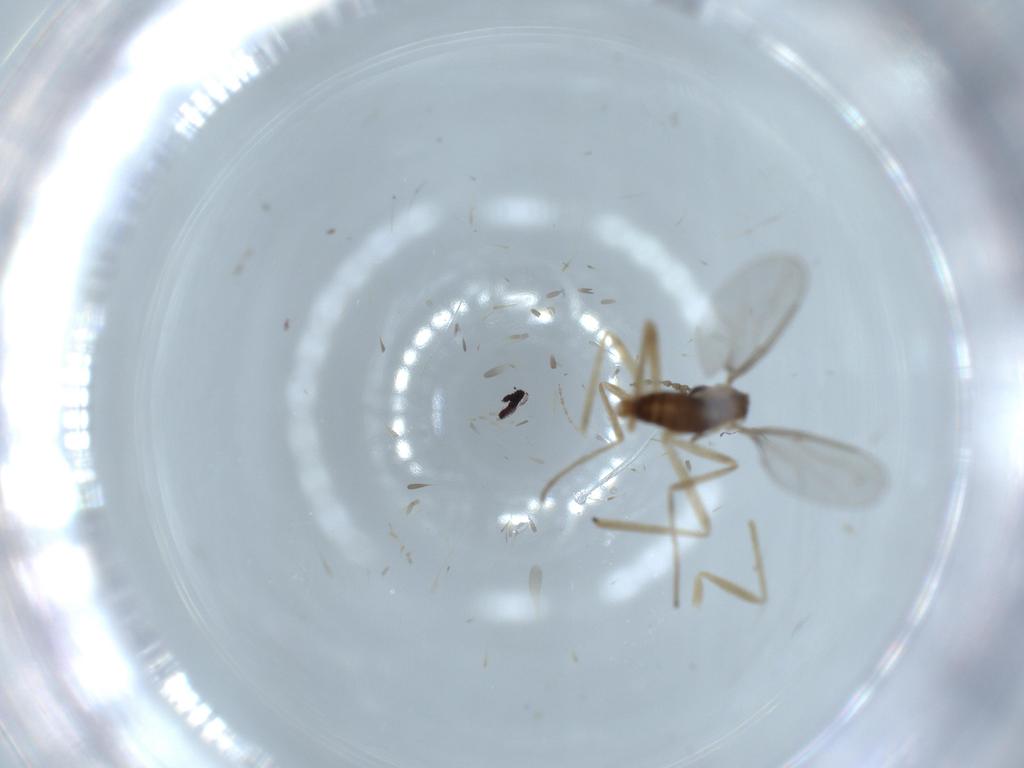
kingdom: Animalia
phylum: Arthropoda
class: Insecta
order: Diptera
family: Cecidomyiidae
